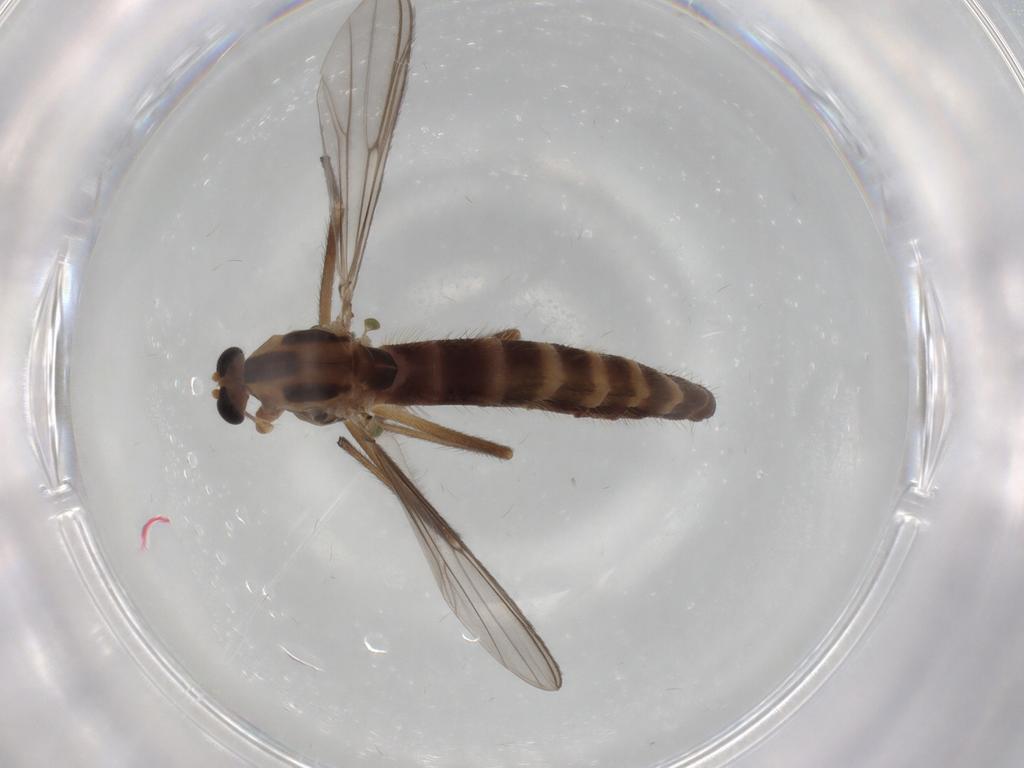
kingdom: Animalia
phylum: Arthropoda
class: Insecta
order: Diptera
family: Chironomidae
